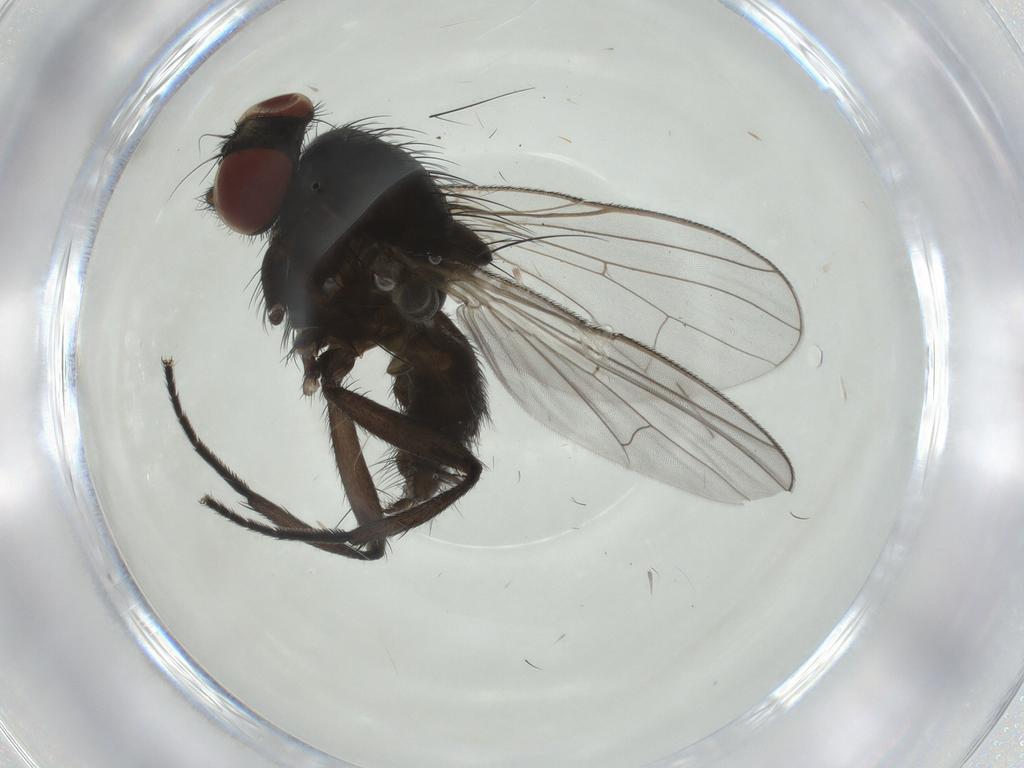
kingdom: Animalia
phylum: Arthropoda
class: Insecta
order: Diptera
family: Muscidae
